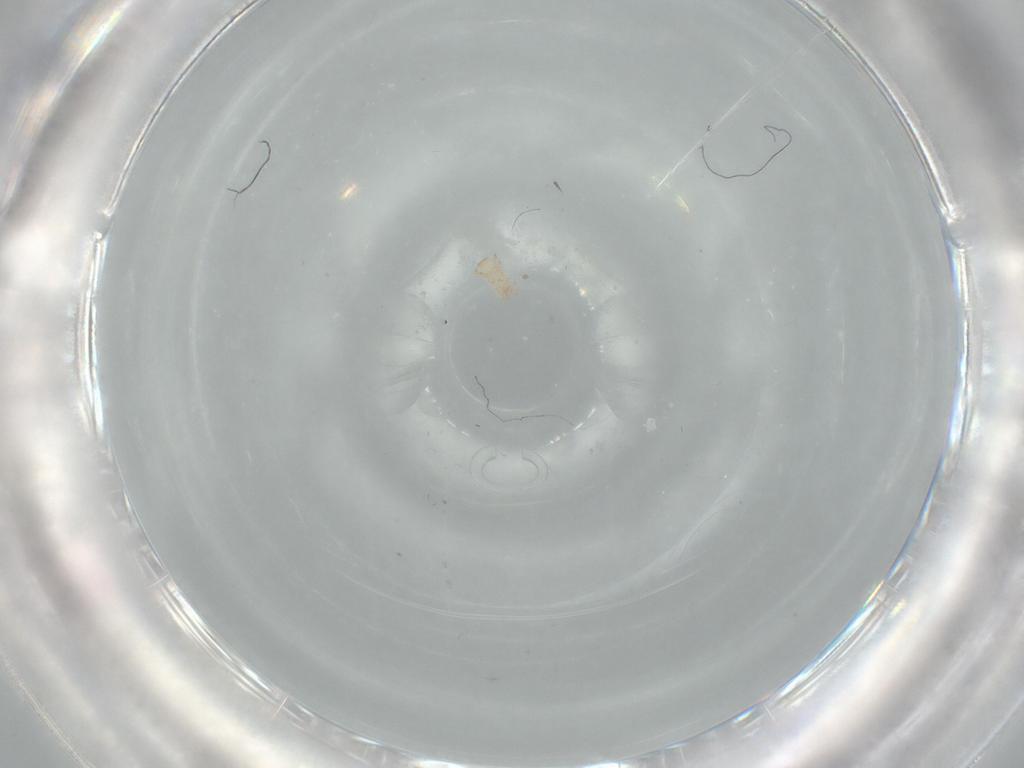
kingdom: Animalia
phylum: Arthropoda
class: Arachnida
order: Mesostigmata
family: Digamasellidae
